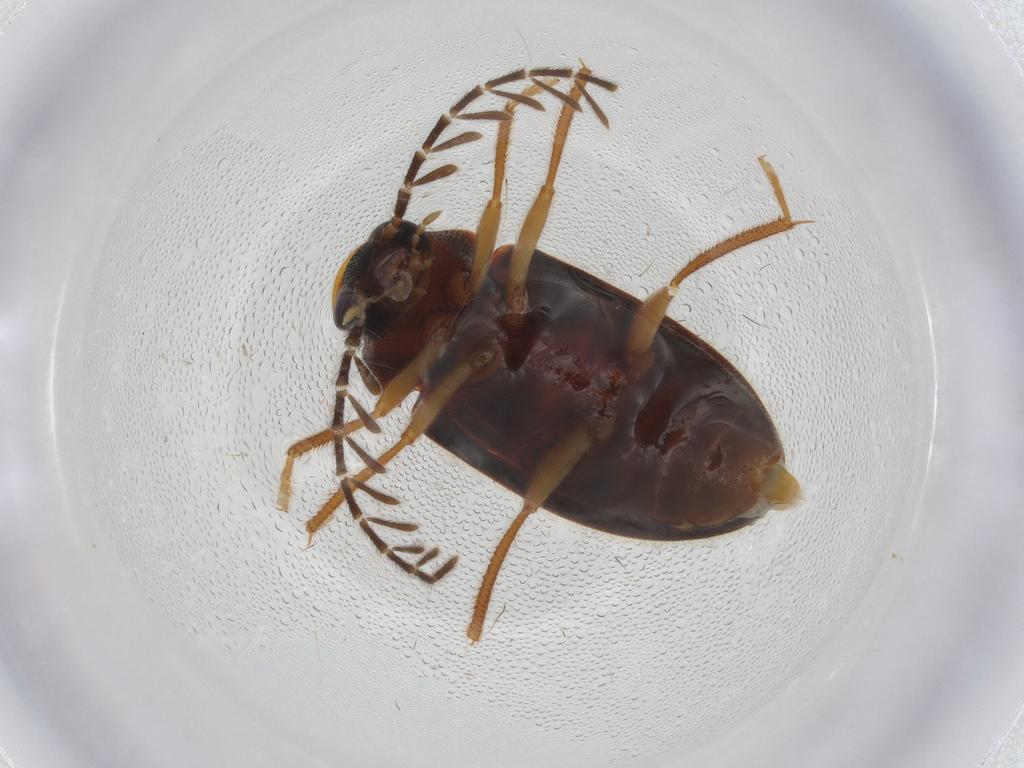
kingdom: Animalia
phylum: Arthropoda
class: Insecta
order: Coleoptera
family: Ptilodactylidae
